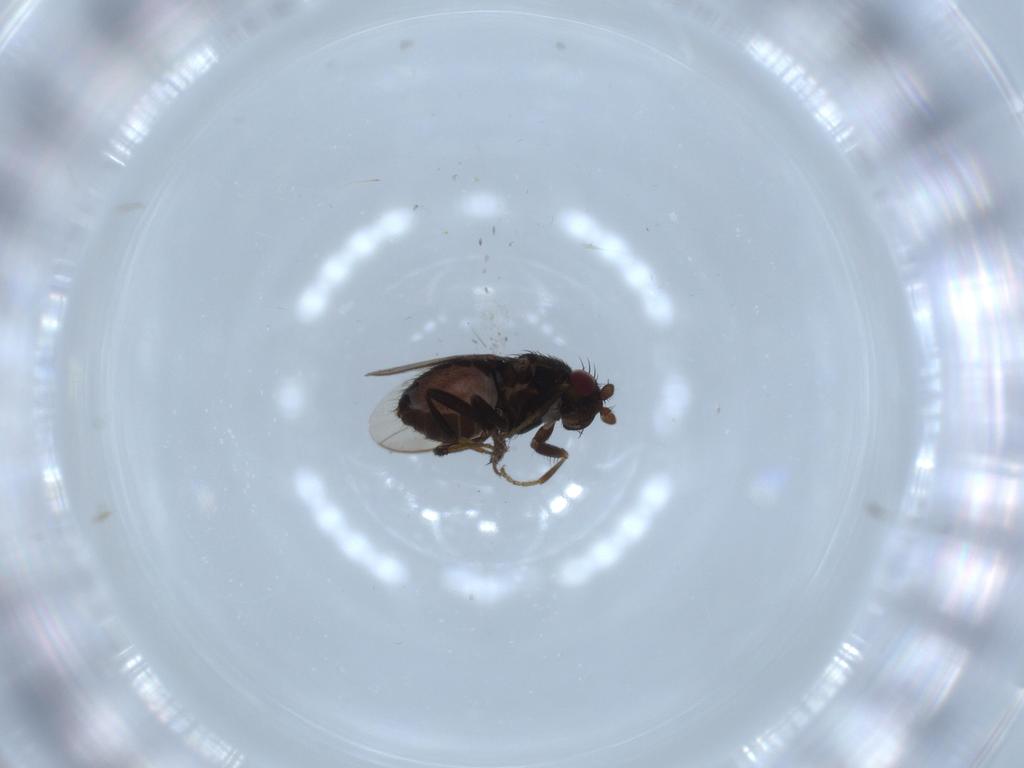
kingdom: Animalia
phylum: Arthropoda
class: Insecta
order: Diptera
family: Sphaeroceridae
